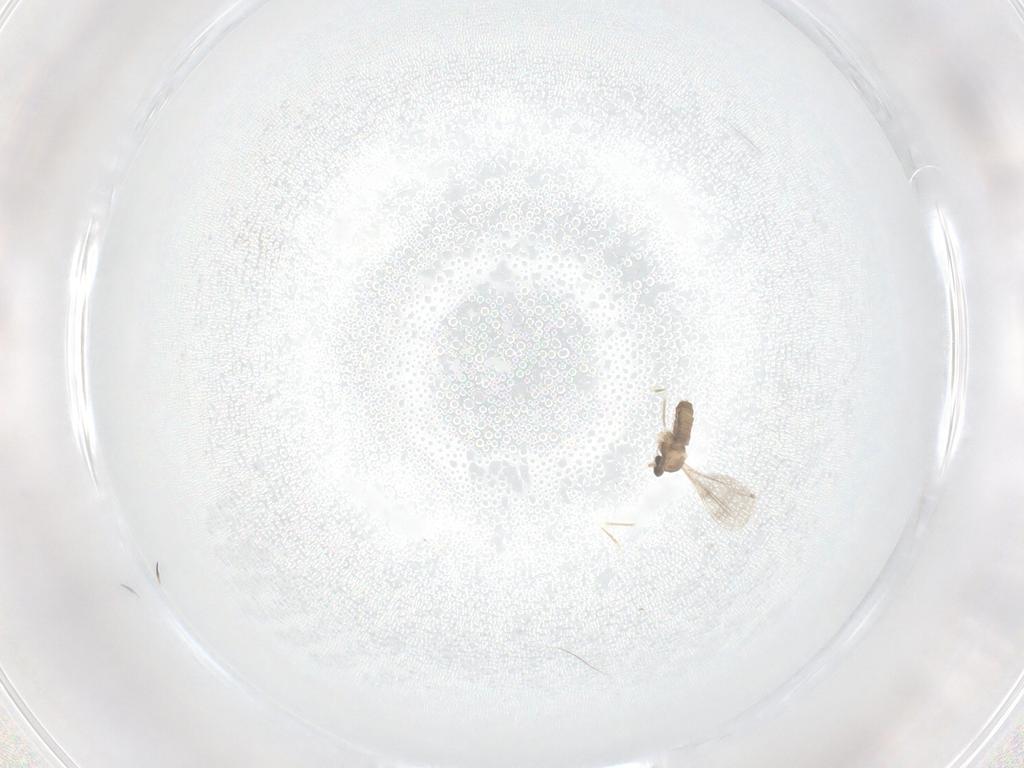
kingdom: Animalia
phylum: Arthropoda
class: Insecta
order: Diptera
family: Cecidomyiidae
